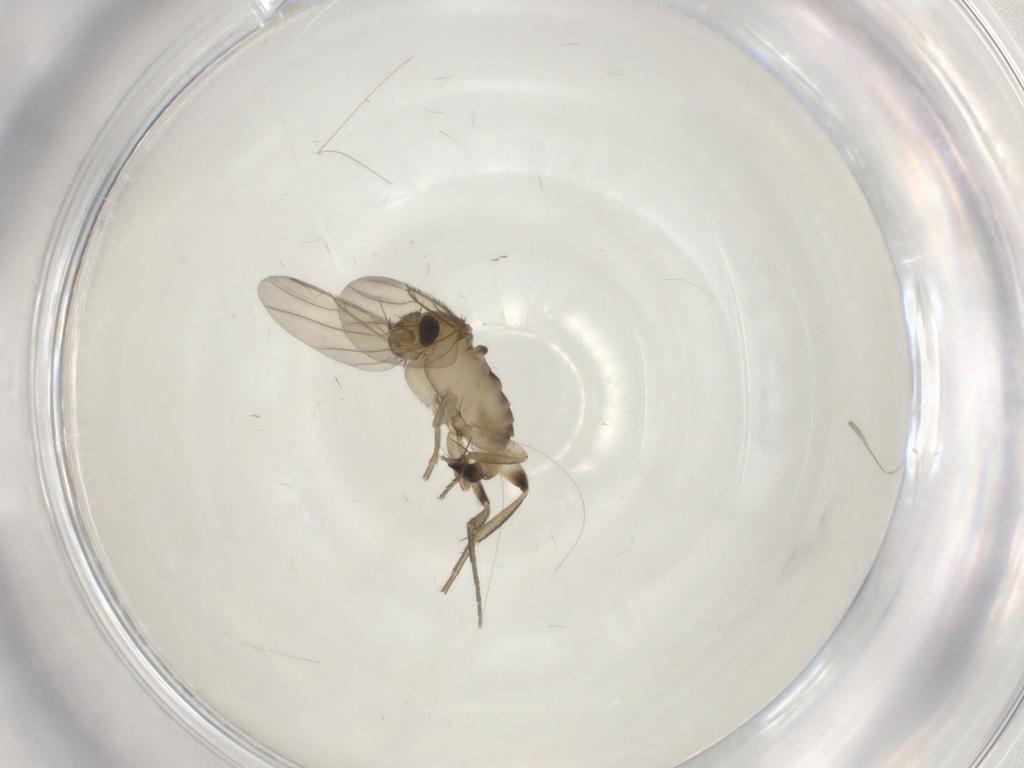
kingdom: Animalia
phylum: Arthropoda
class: Insecta
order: Diptera
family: Phoridae
